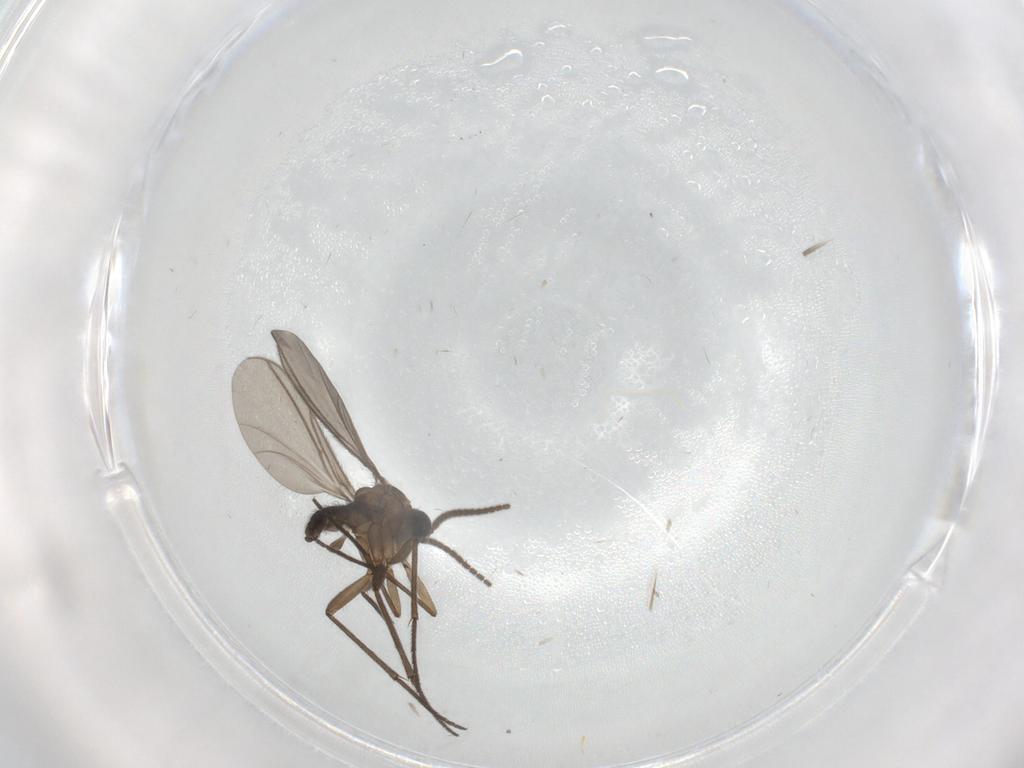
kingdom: Animalia
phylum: Arthropoda
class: Insecta
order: Diptera
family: Sciaridae
